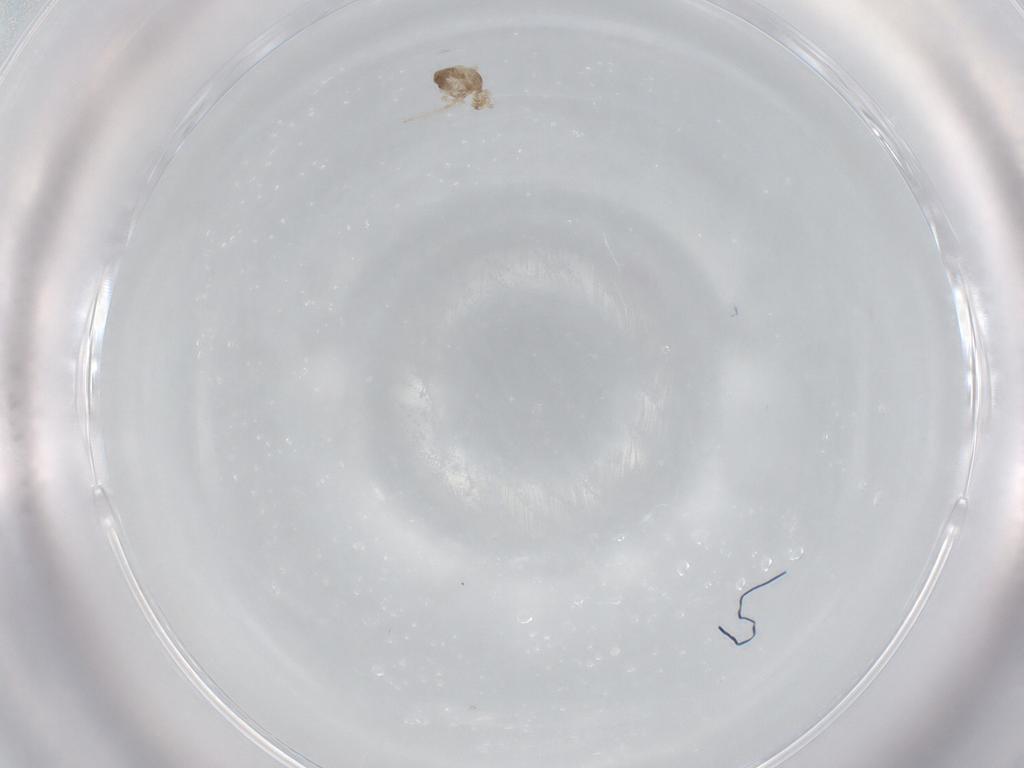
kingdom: Animalia
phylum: Arthropoda
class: Insecta
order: Diptera
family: Cecidomyiidae
